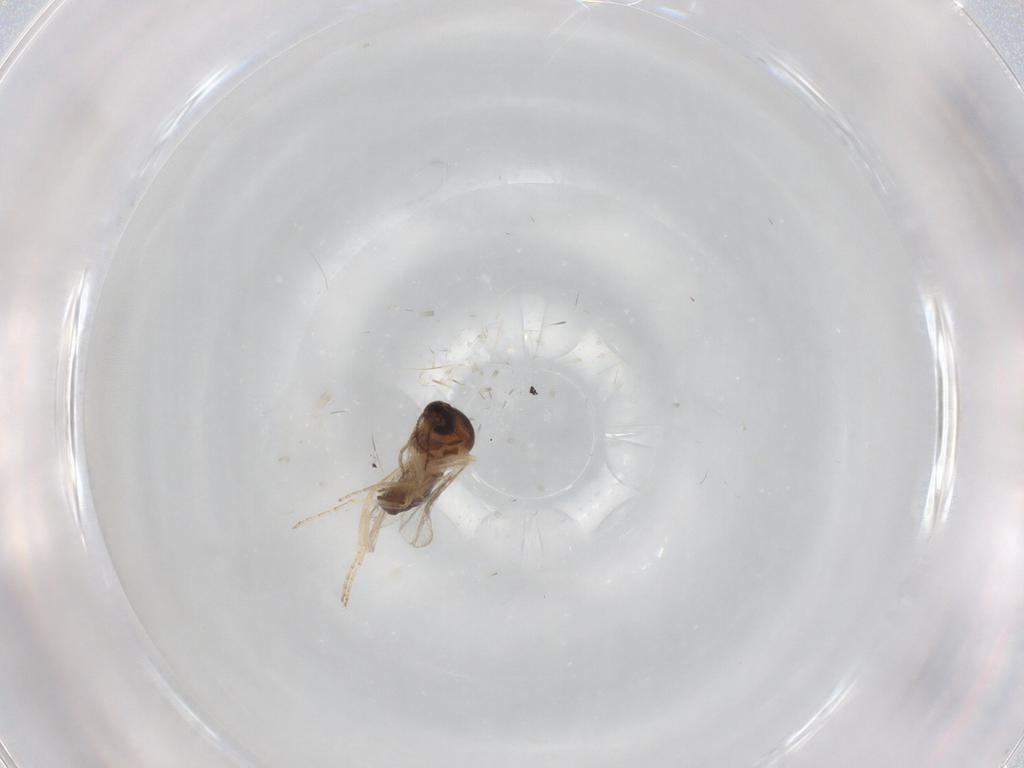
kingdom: Animalia
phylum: Arthropoda
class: Insecta
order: Diptera
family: Ceratopogonidae
